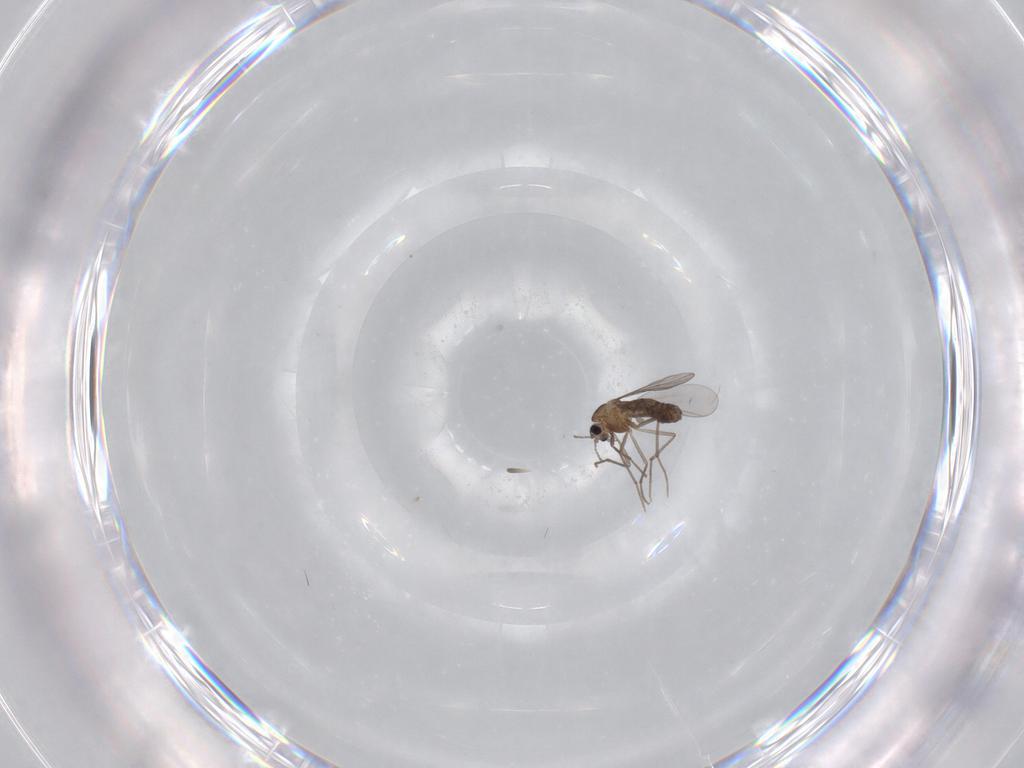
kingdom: Animalia
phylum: Arthropoda
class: Insecta
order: Diptera
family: Hybotidae
